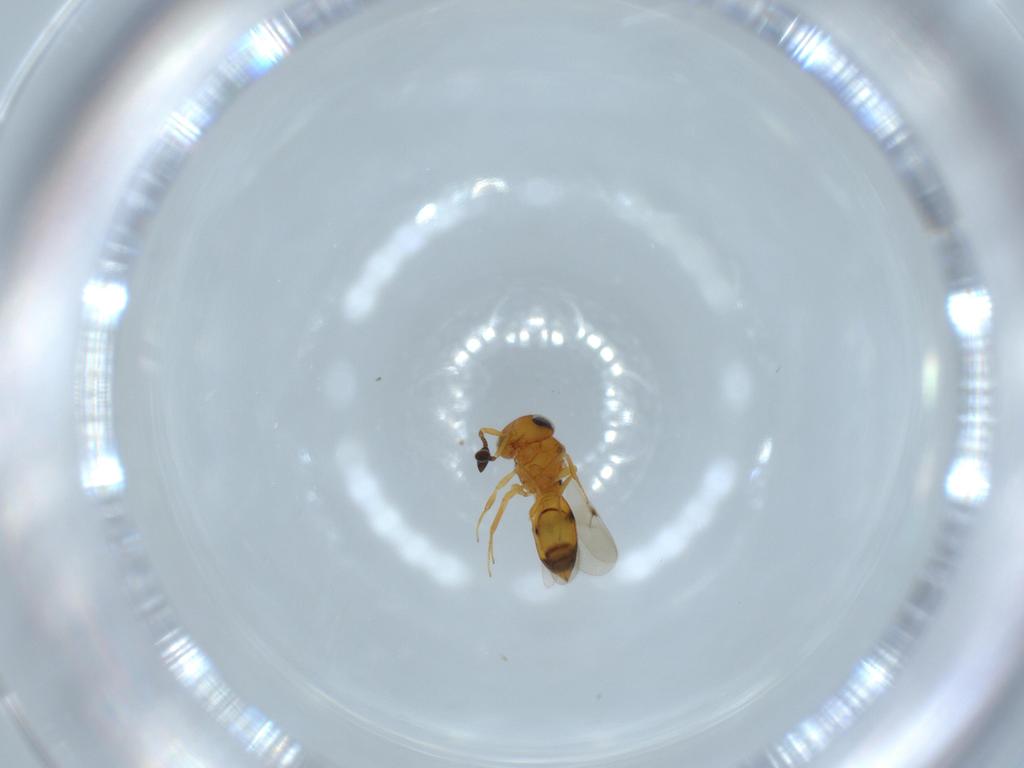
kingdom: Animalia
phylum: Arthropoda
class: Insecta
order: Hymenoptera
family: Scelionidae
